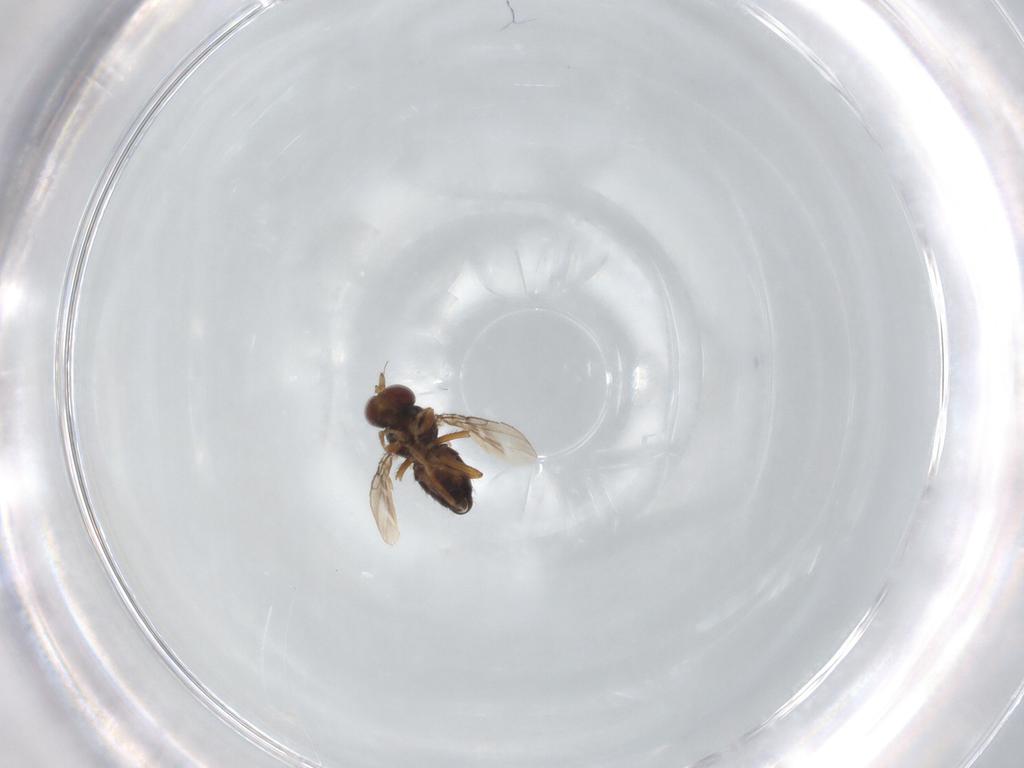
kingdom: Animalia
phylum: Arthropoda
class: Insecta
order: Diptera
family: Ephydridae
